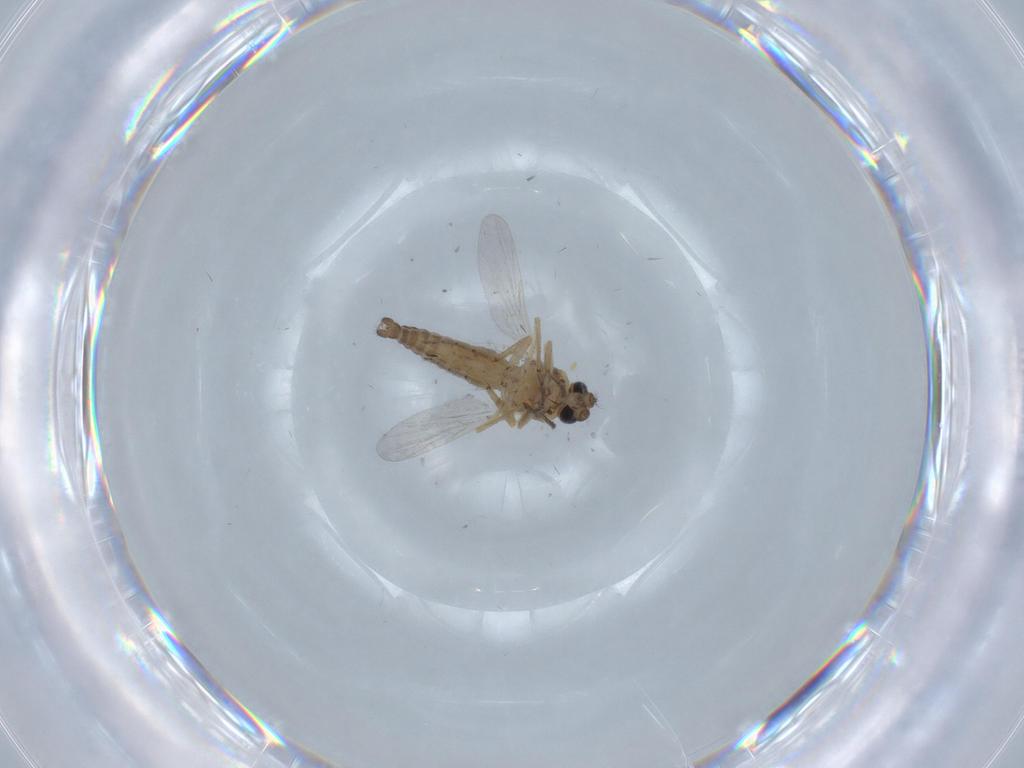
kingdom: Animalia
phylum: Arthropoda
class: Insecta
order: Diptera
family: Ceratopogonidae
